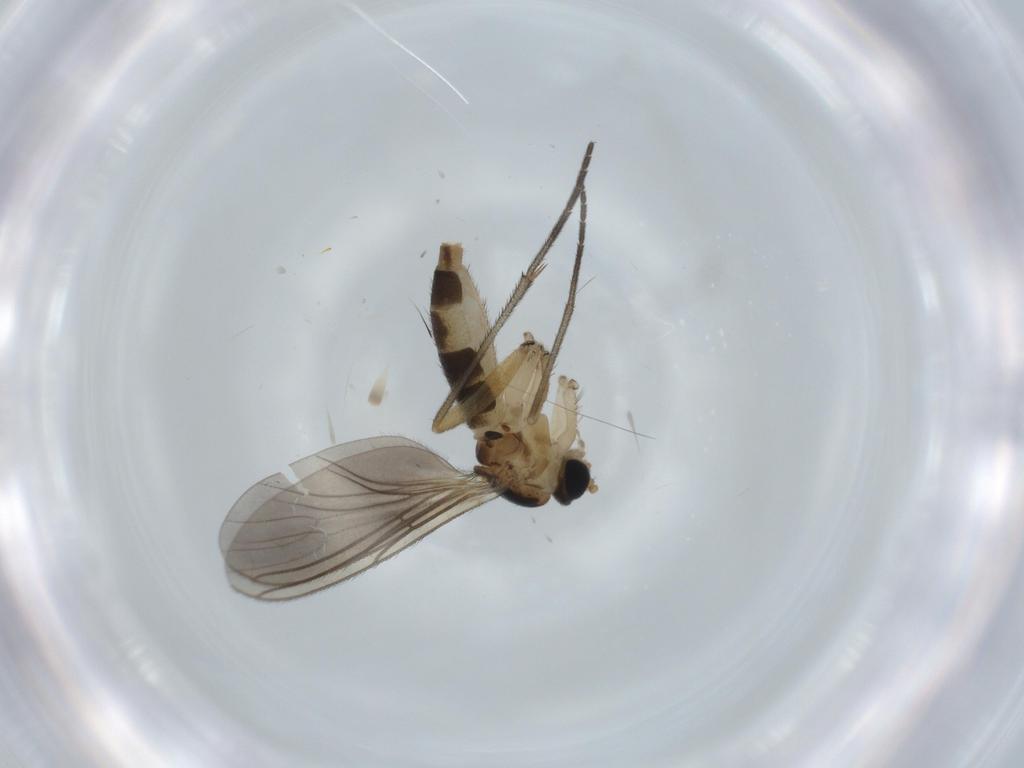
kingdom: Animalia
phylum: Arthropoda
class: Insecta
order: Diptera
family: Sciaridae
